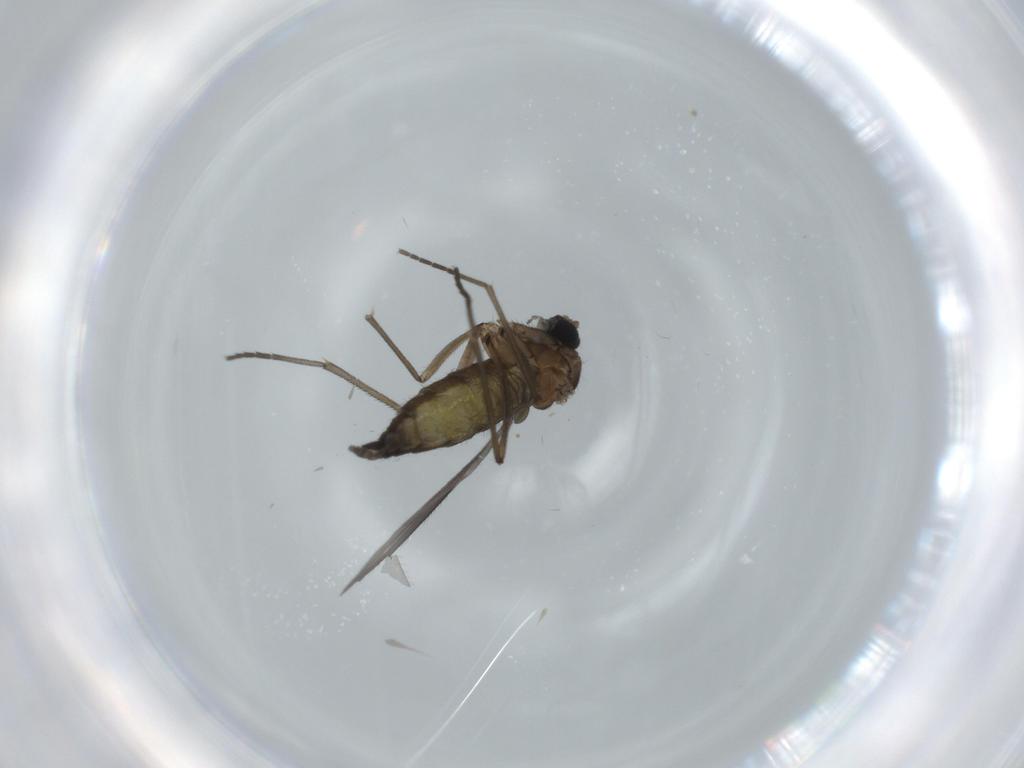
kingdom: Animalia
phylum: Arthropoda
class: Insecta
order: Diptera
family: Sciaridae
